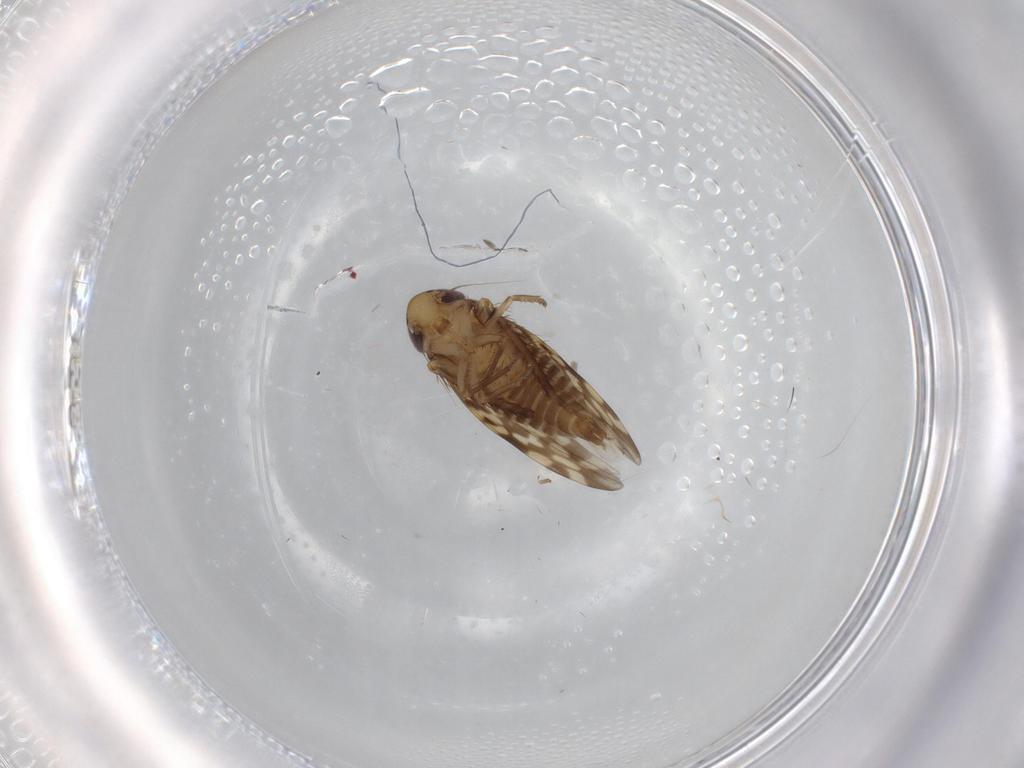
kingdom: Animalia
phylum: Arthropoda
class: Insecta
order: Hemiptera
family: Cicadellidae
